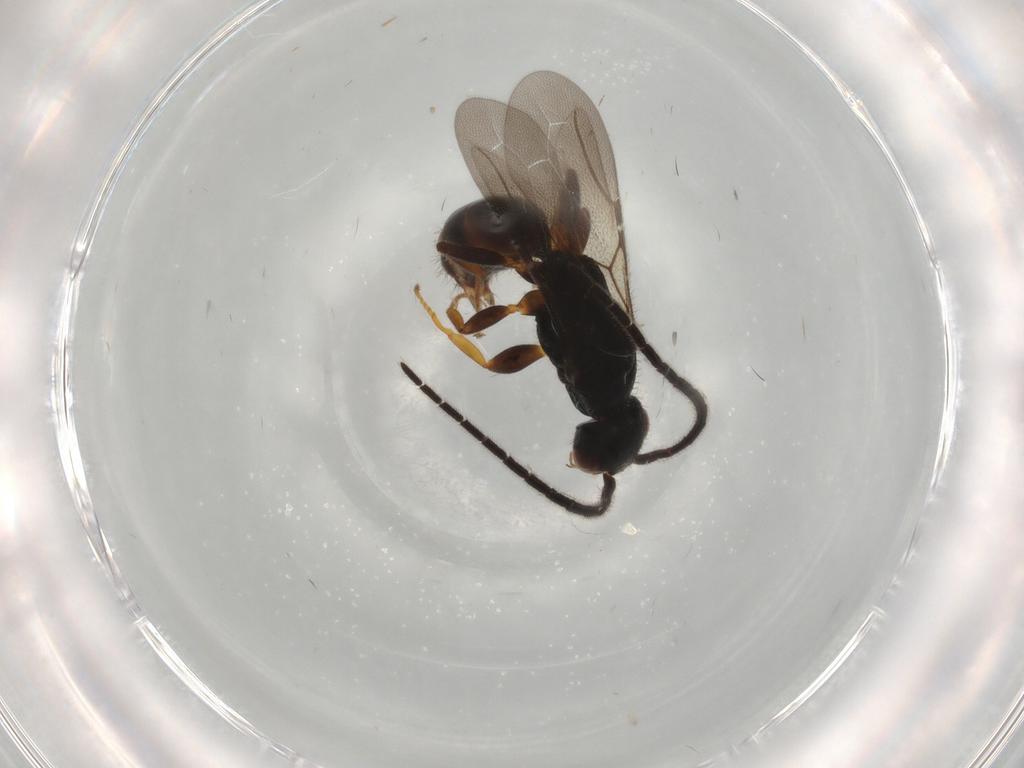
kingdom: Animalia
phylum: Arthropoda
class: Insecta
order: Hymenoptera
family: Bethylidae
